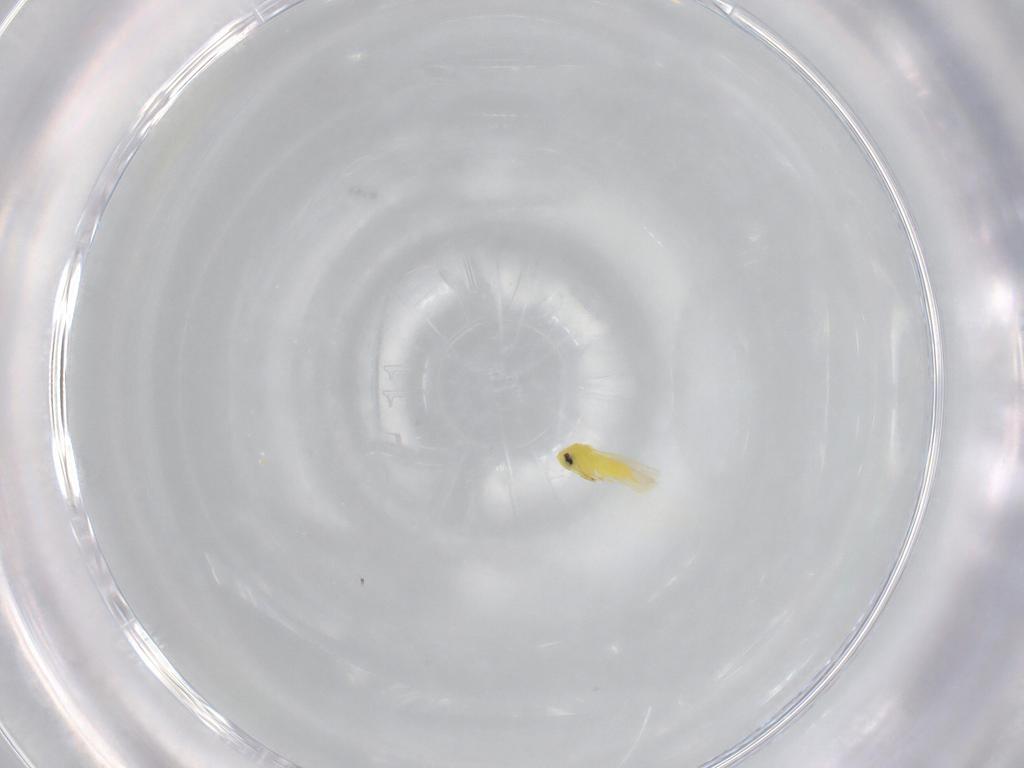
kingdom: Animalia
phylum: Arthropoda
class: Insecta
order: Hemiptera
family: Aleyrodidae
